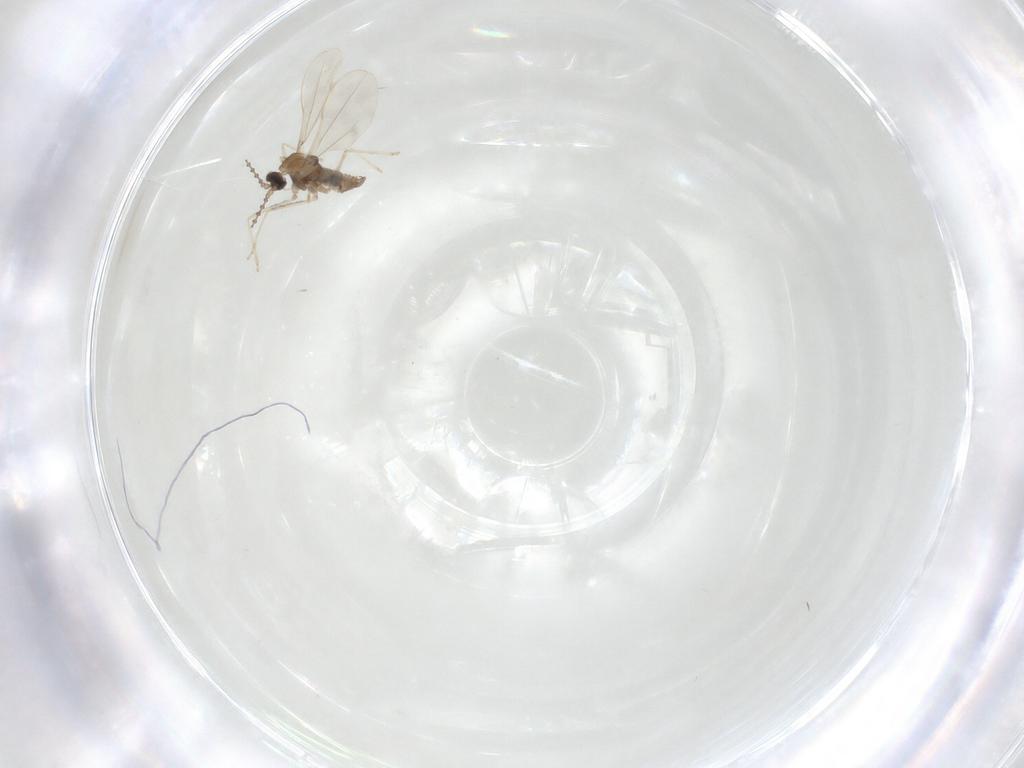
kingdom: Animalia
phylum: Arthropoda
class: Insecta
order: Diptera
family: Cecidomyiidae
